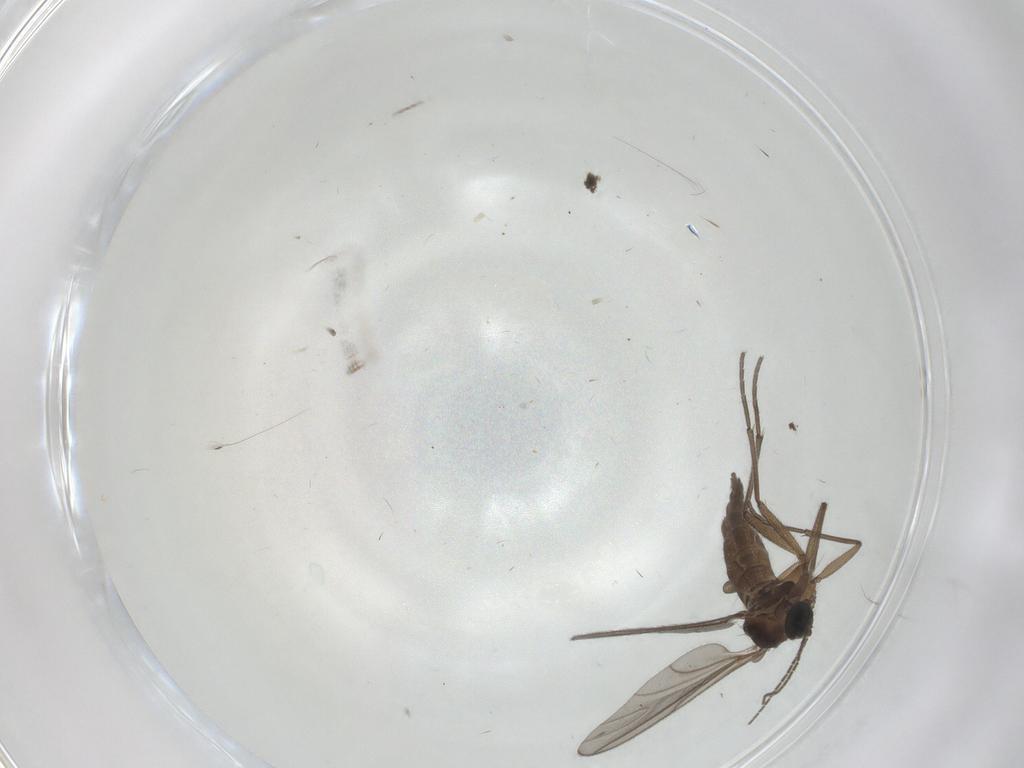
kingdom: Animalia
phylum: Arthropoda
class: Insecta
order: Diptera
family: Sciaridae
